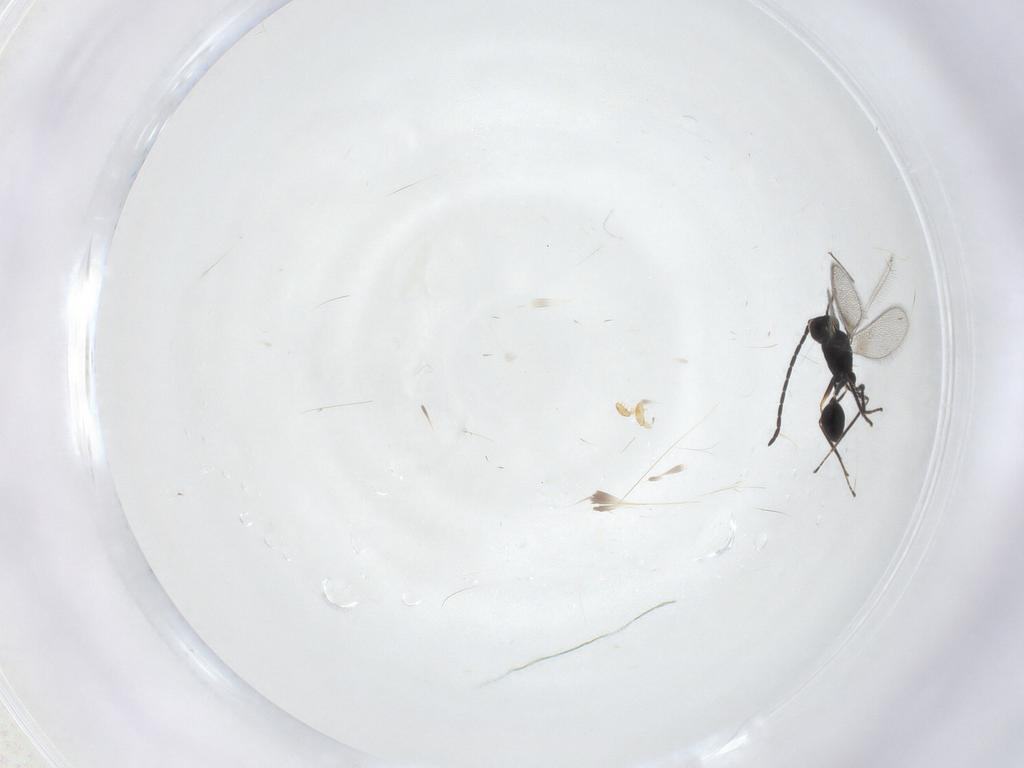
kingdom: Animalia
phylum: Arthropoda
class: Insecta
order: Hymenoptera
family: Mymaridae
